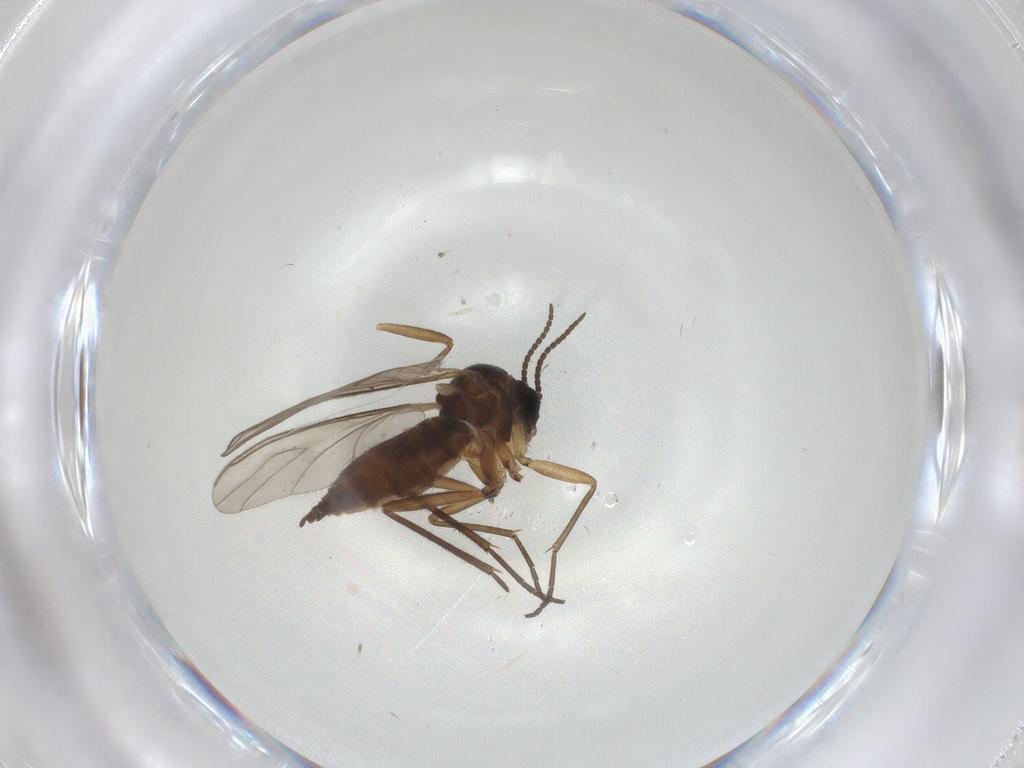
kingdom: Animalia
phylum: Arthropoda
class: Insecta
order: Diptera
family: Sciaridae
